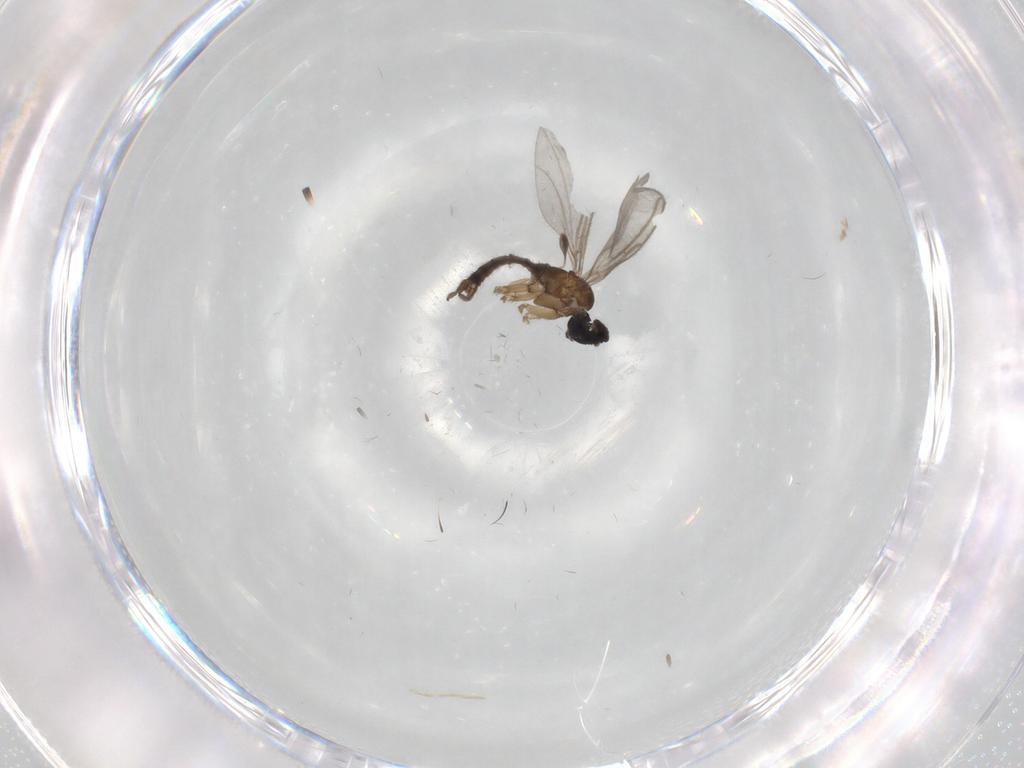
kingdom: Animalia
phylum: Arthropoda
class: Insecta
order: Diptera
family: Sciaridae
